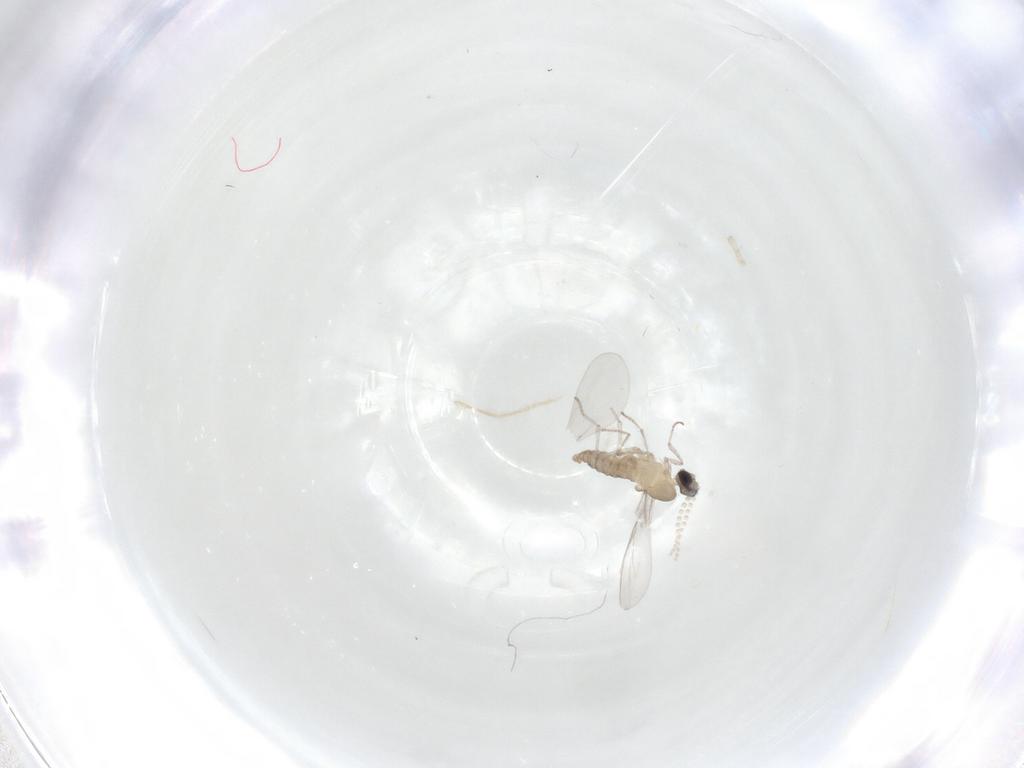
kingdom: Animalia
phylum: Arthropoda
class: Insecta
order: Diptera
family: Cecidomyiidae
